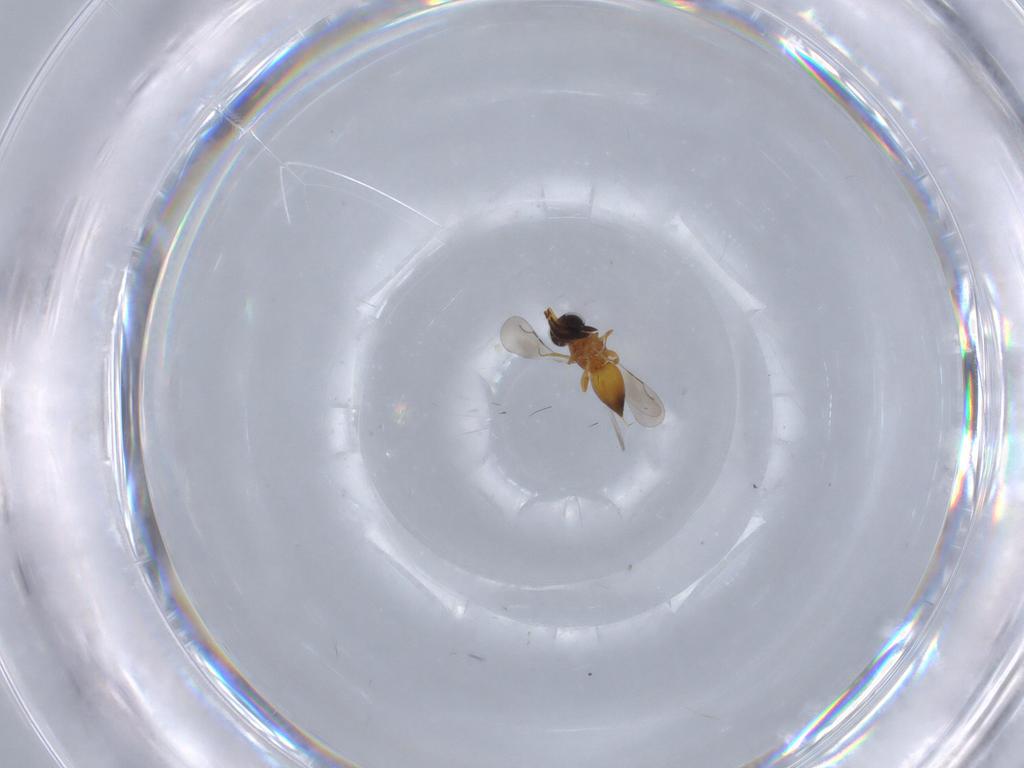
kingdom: Animalia
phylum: Arthropoda
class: Insecta
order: Hymenoptera
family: Ceraphronidae
